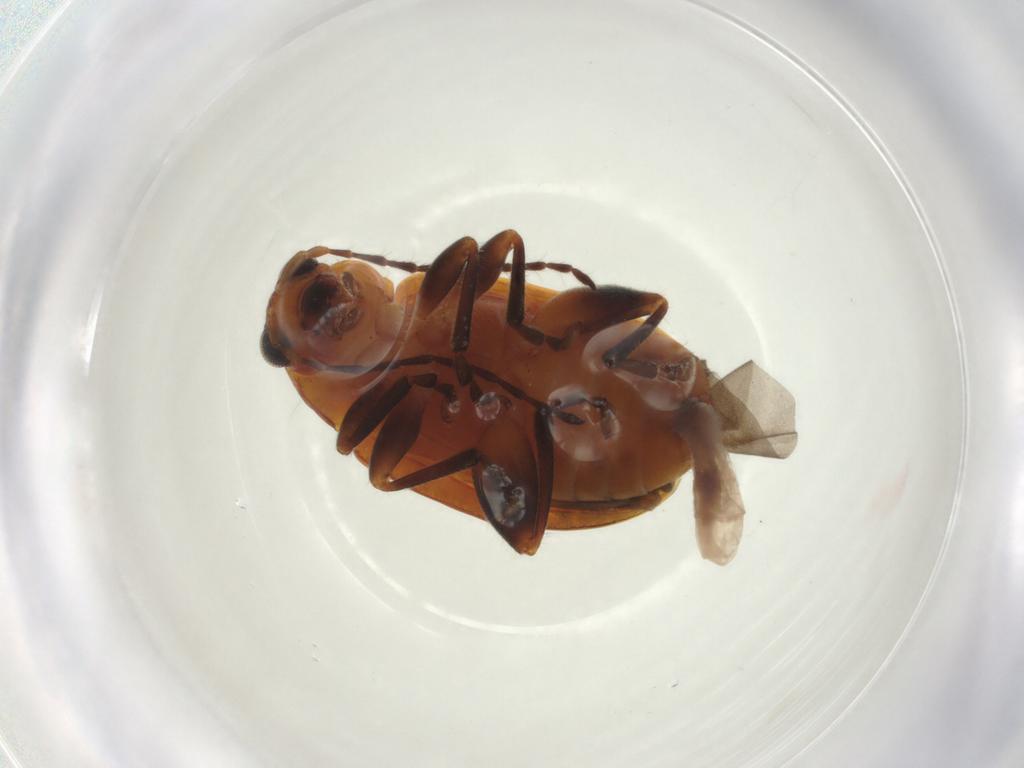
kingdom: Animalia
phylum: Arthropoda
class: Insecta
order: Coleoptera
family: Chrysomelidae
